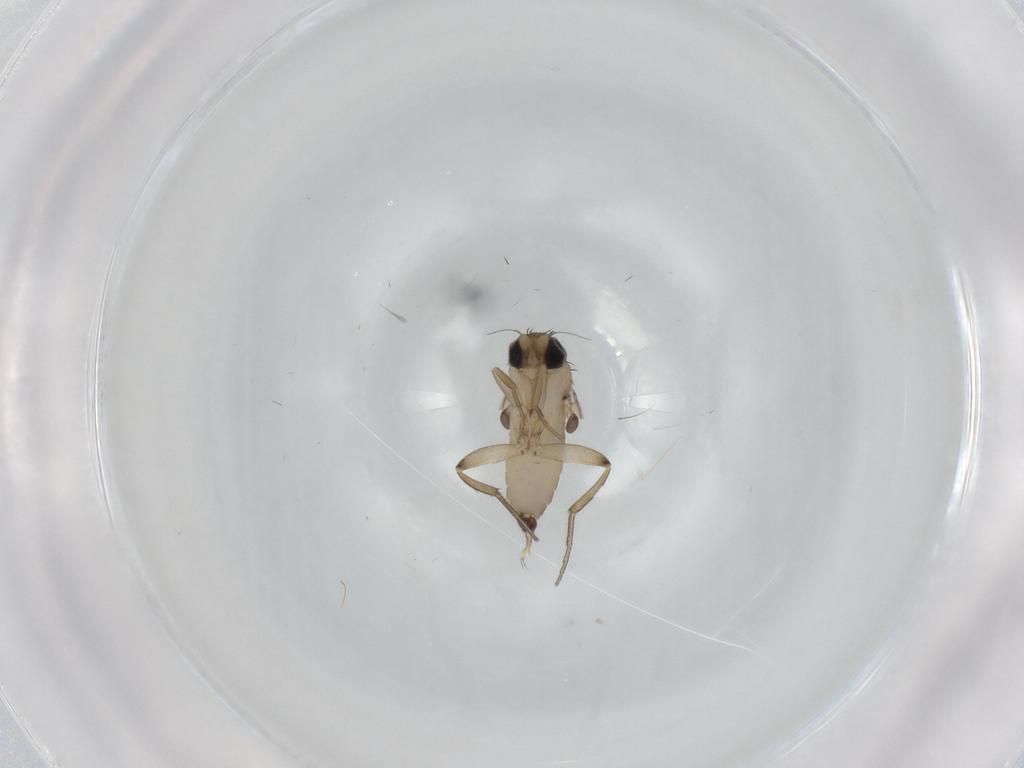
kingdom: Animalia
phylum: Arthropoda
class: Insecta
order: Diptera
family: Phoridae
